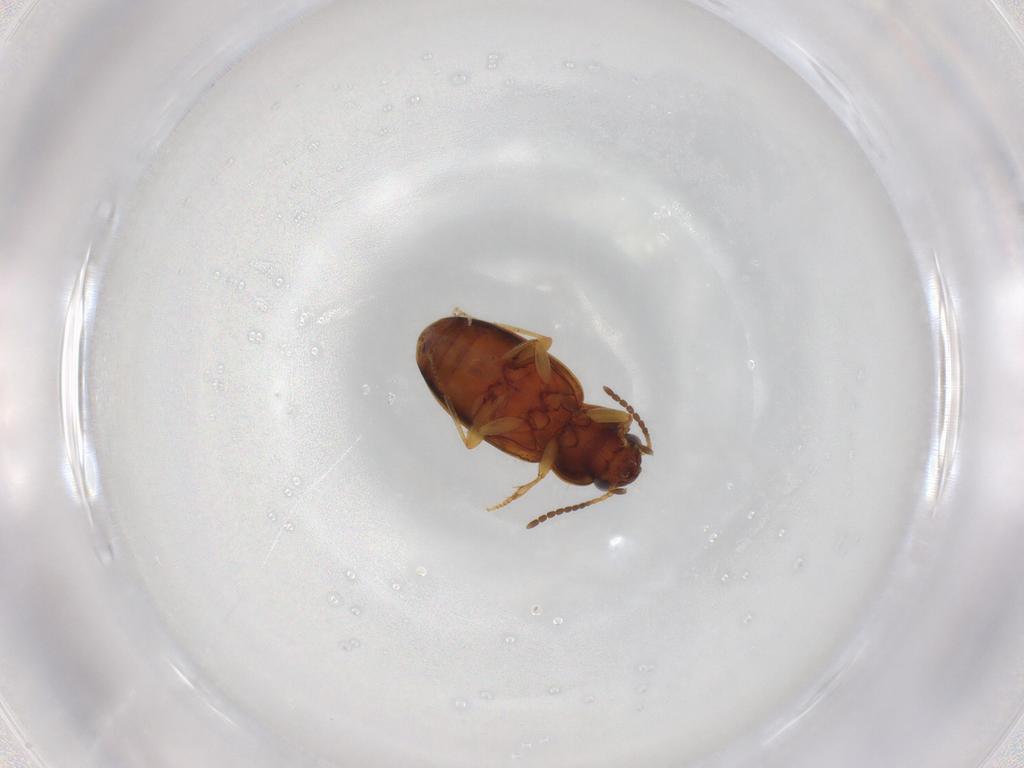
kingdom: Animalia
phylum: Arthropoda
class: Insecta
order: Coleoptera
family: Carabidae
